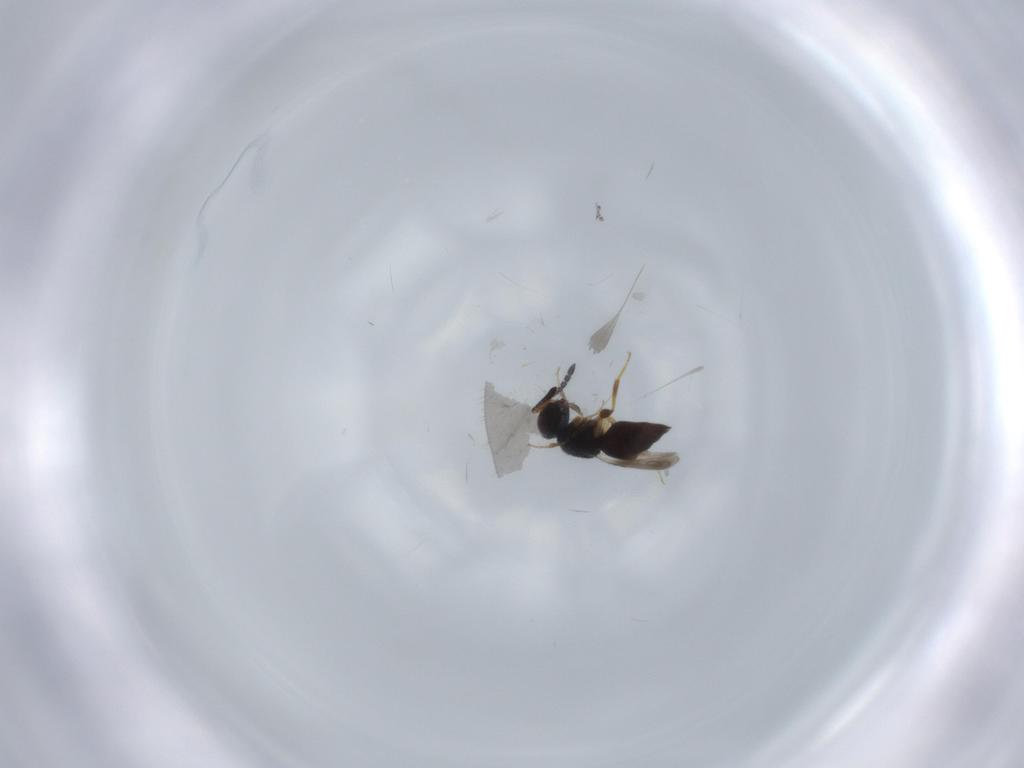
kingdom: Animalia
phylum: Arthropoda
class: Insecta
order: Hymenoptera
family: Ceraphronidae
